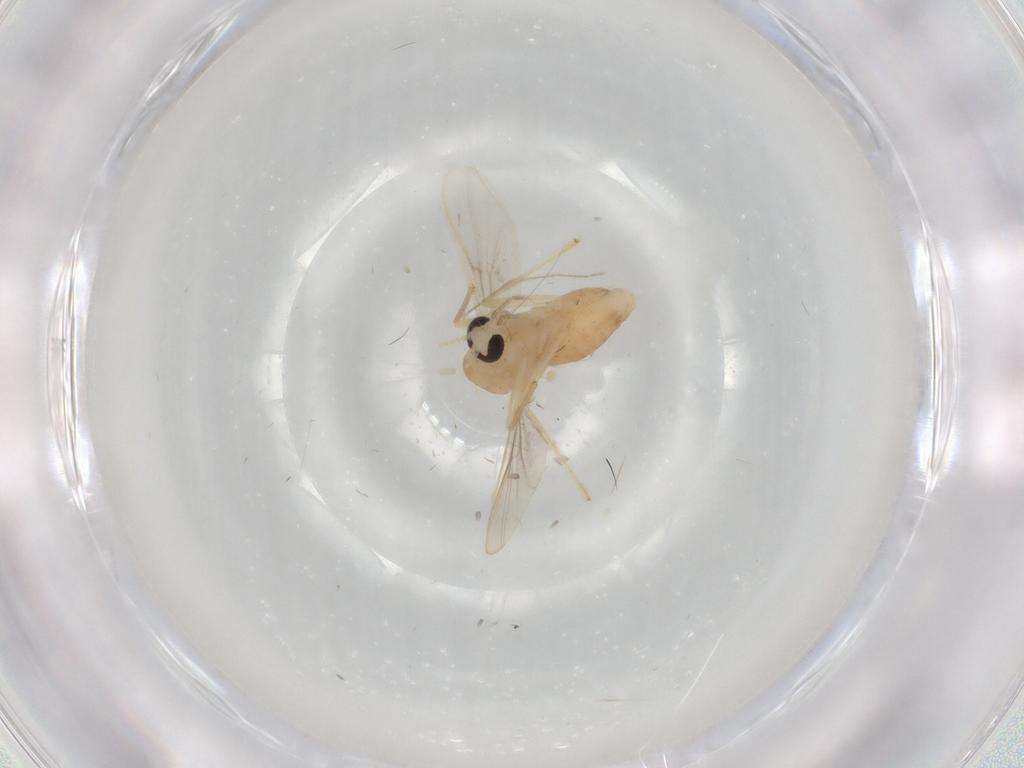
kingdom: Animalia
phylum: Arthropoda
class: Insecta
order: Diptera
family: Chironomidae
